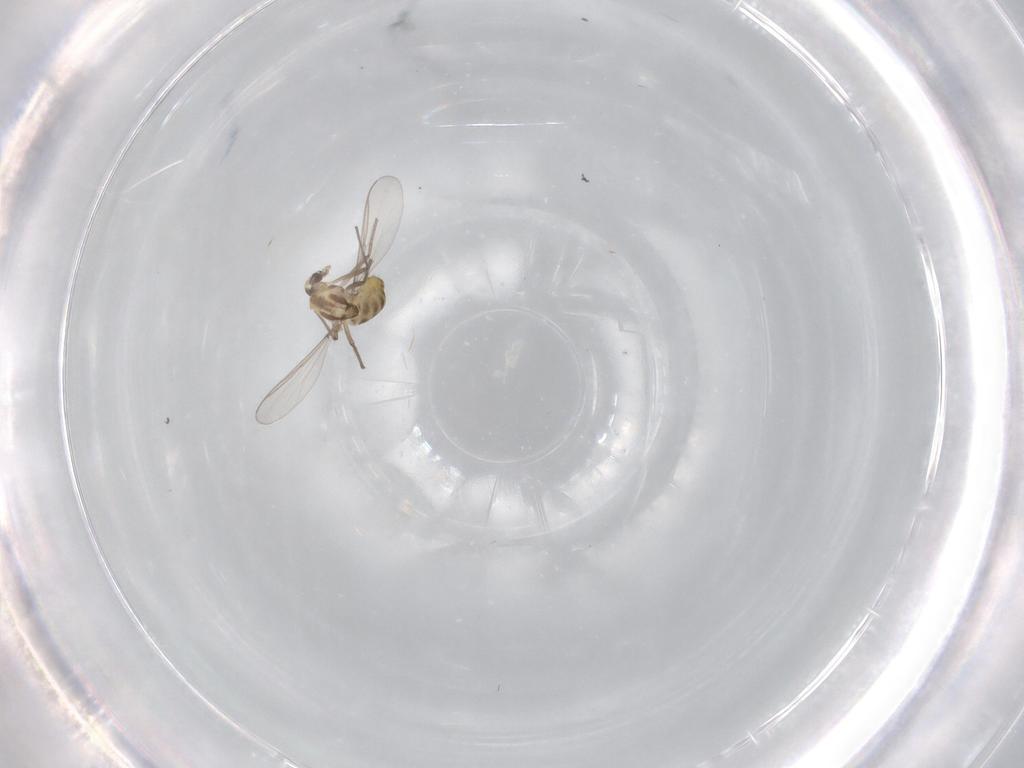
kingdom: Animalia
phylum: Arthropoda
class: Insecta
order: Diptera
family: Chironomidae
